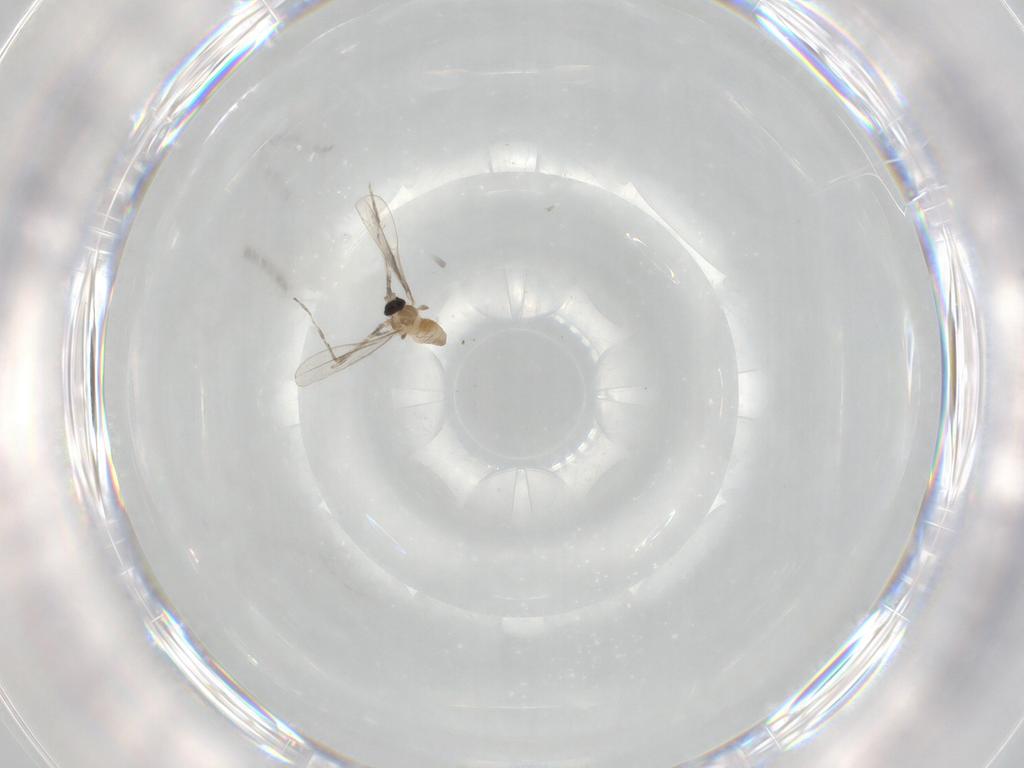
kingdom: Animalia
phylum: Arthropoda
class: Insecta
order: Diptera
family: Cecidomyiidae
